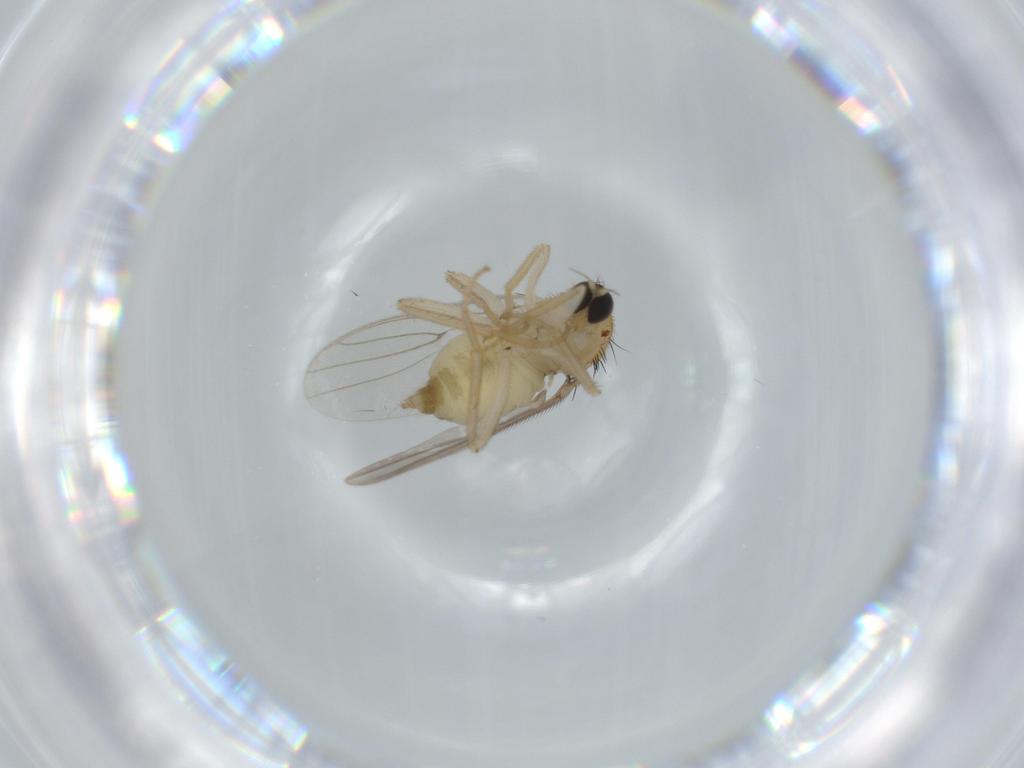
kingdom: Animalia
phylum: Arthropoda
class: Insecta
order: Diptera
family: Hybotidae
